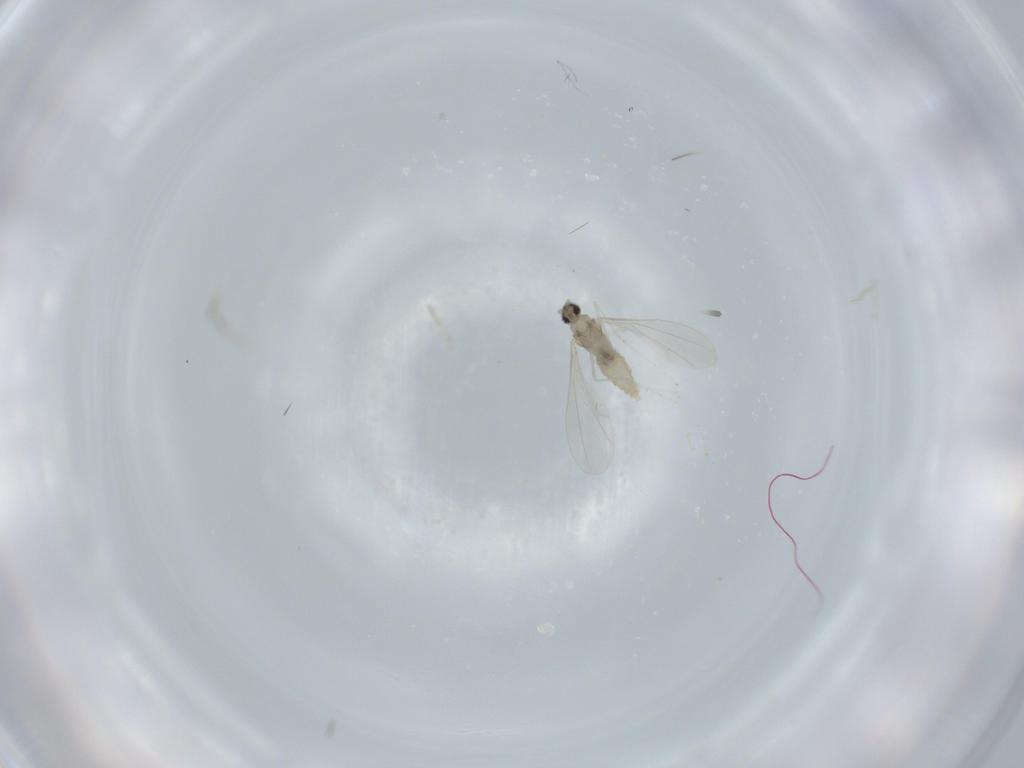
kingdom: Animalia
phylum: Arthropoda
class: Insecta
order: Diptera
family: Cecidomyiidae
